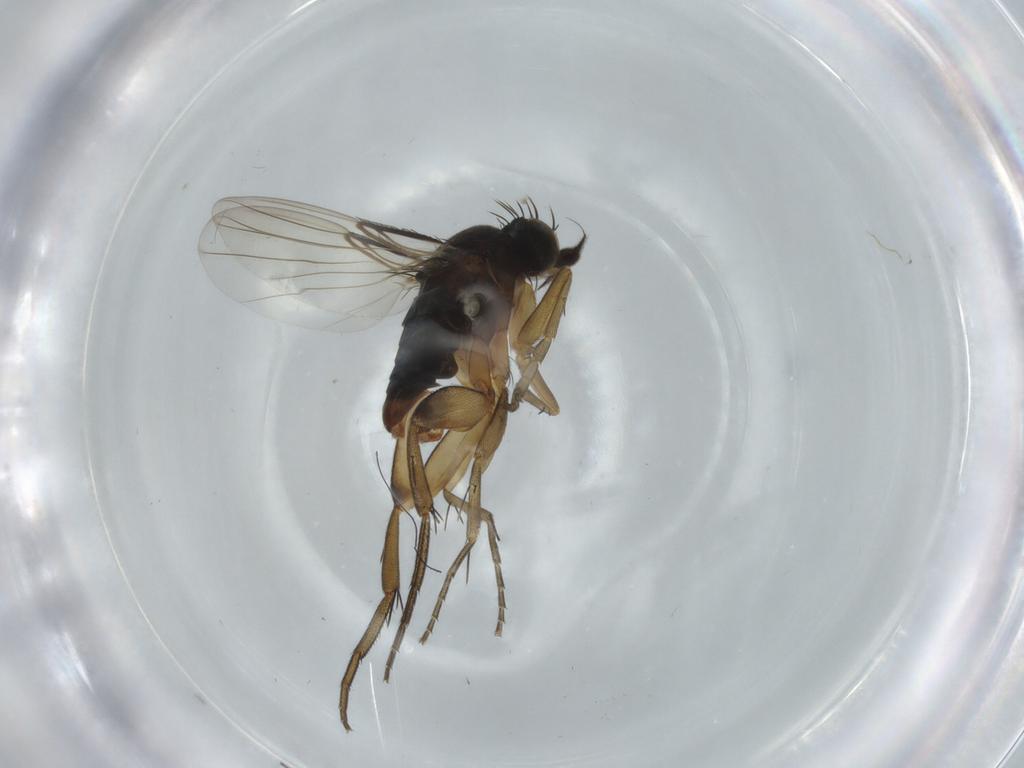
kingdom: Animalia
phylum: Arthropoda
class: Insecta
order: Diptera
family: Phoridae
